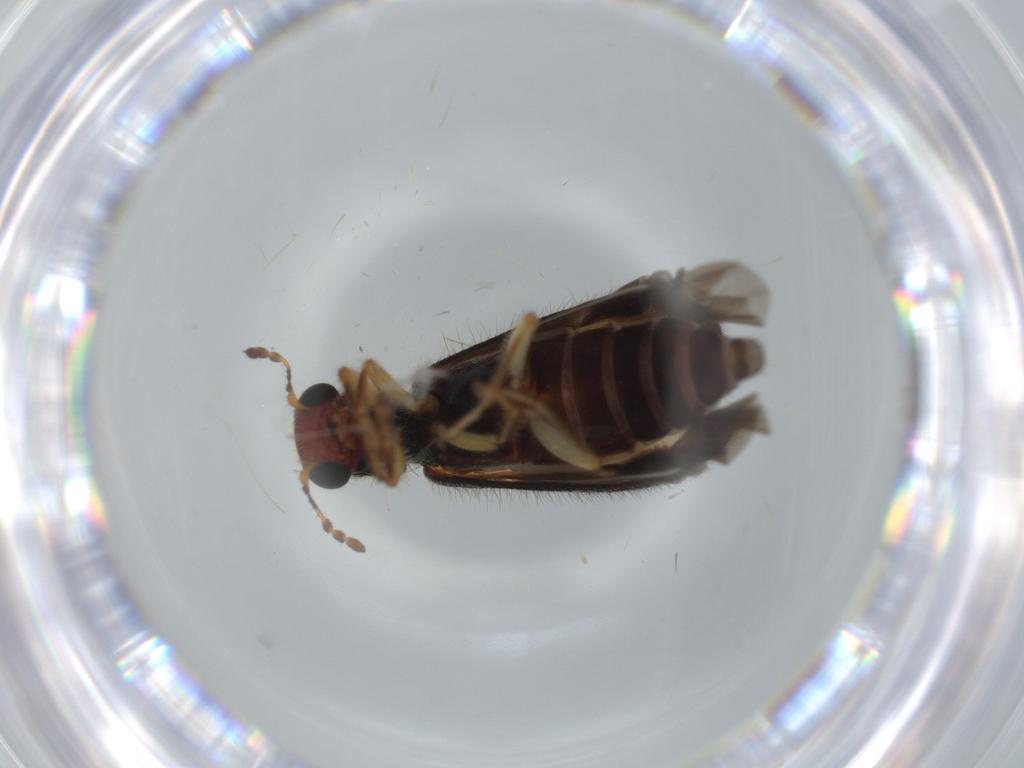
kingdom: Animalia
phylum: Arthropoda
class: Insecta
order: Coleoptera
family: Cleridae
